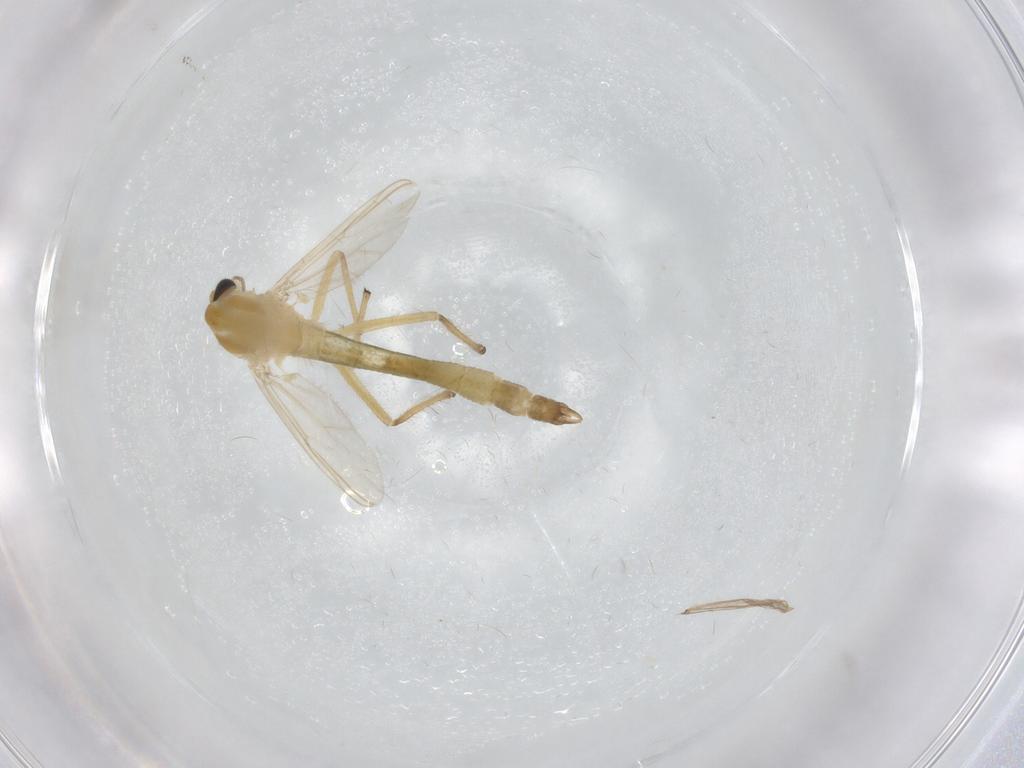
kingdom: Animalia
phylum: Arthropoda
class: Insecta
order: Diptera
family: Chironomidae
